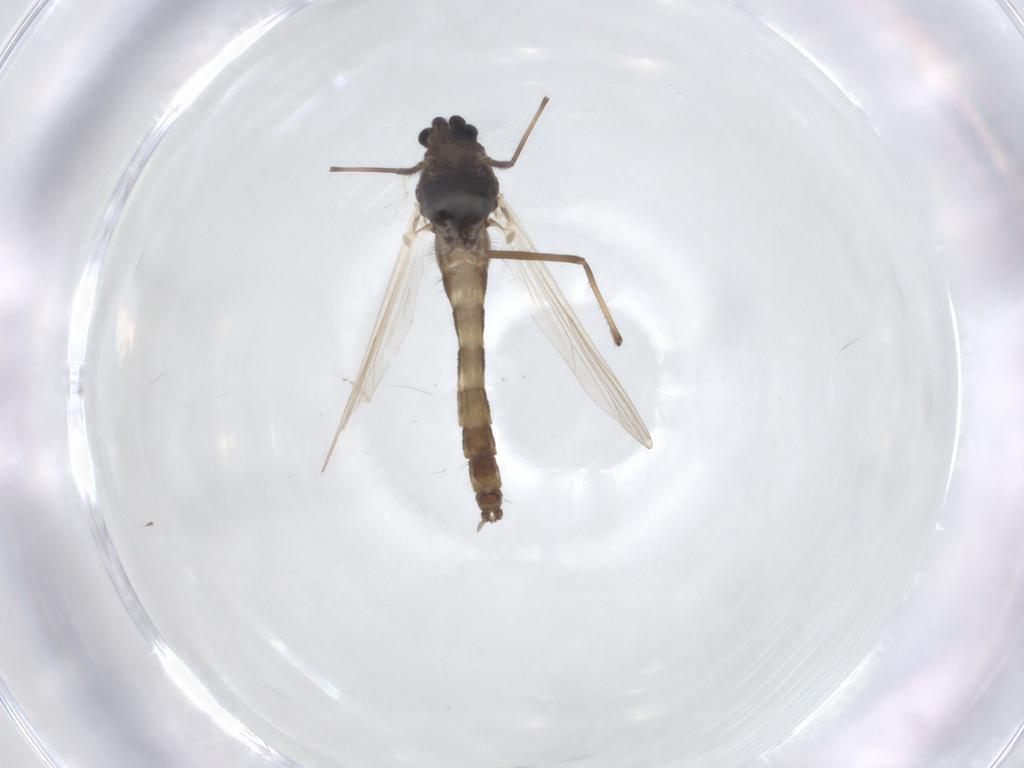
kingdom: Animalia
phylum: Arthropoda
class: Insecta
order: Diptera
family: Chironomidae
